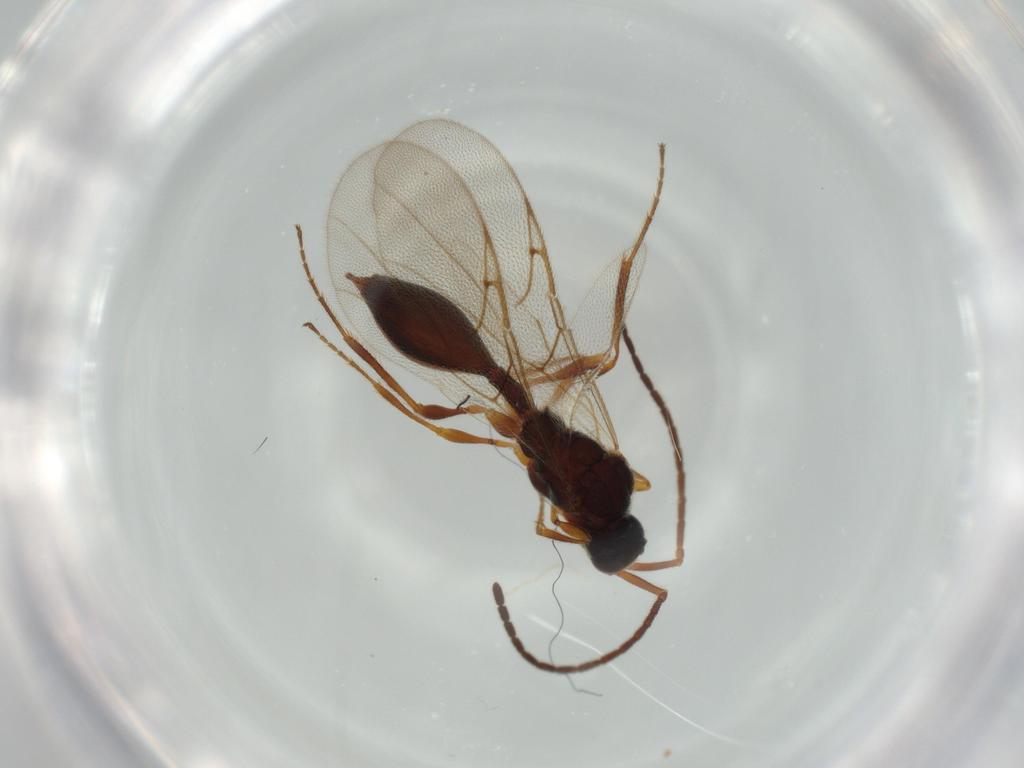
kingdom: Animalia
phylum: Arthropoda
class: Insecta
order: Hymenoptera
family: Diapriidae
